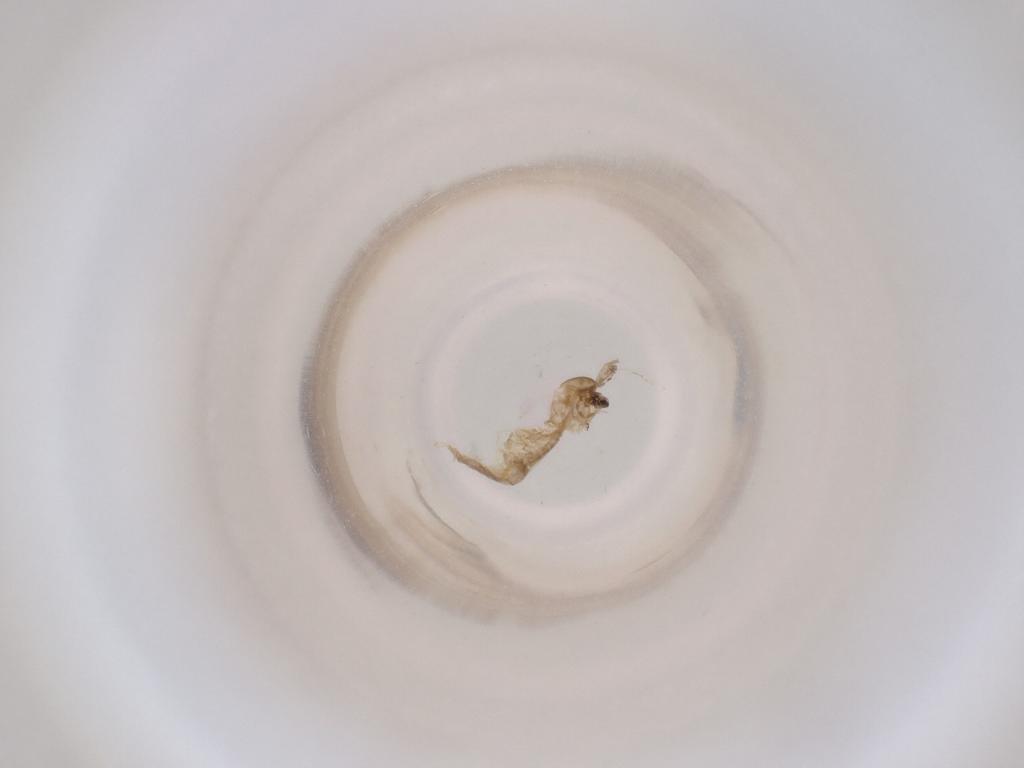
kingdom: Animalia
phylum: Arthropoda
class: Insecta
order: Diptera
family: Cecidomyiidae
